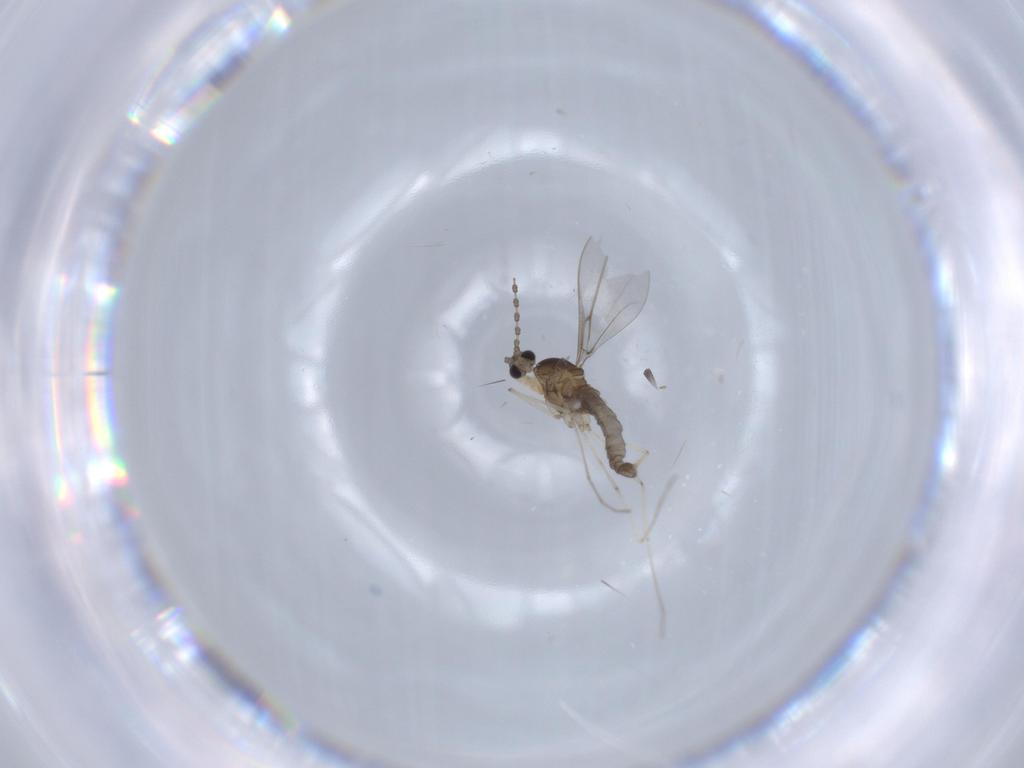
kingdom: Animalia
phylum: Arthropoda
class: Insecta
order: Diptera
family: Cecidomyiidae
